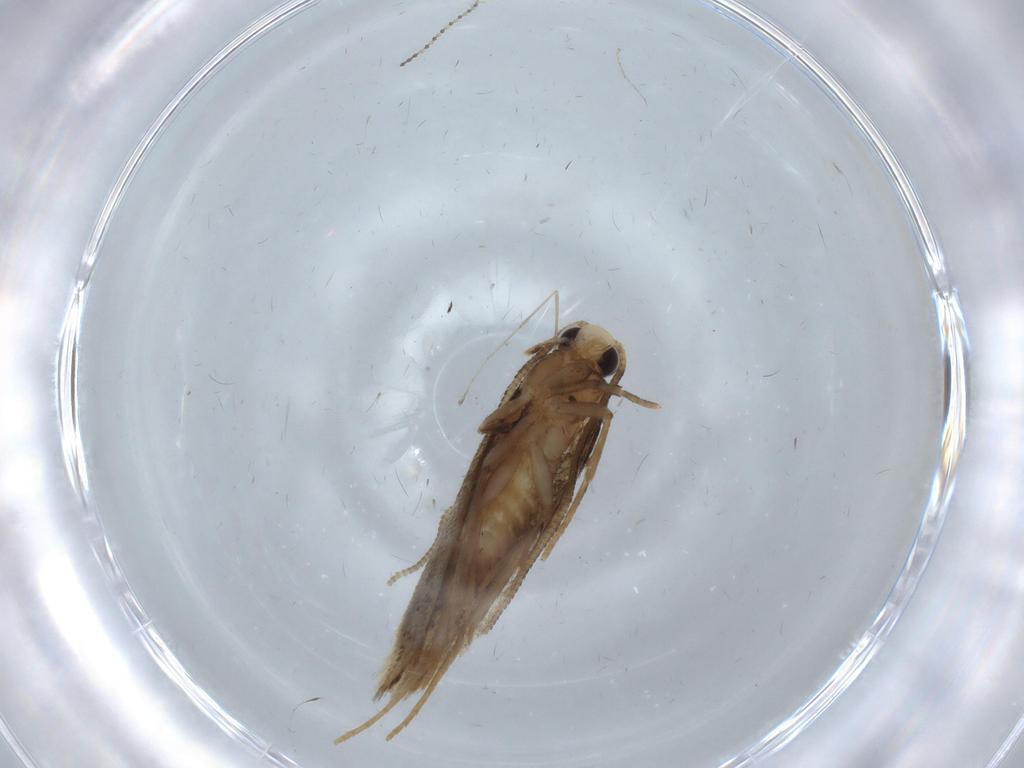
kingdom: Animalia
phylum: Arthropoda
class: Insecta
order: Lepidoptera
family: Tineidae
